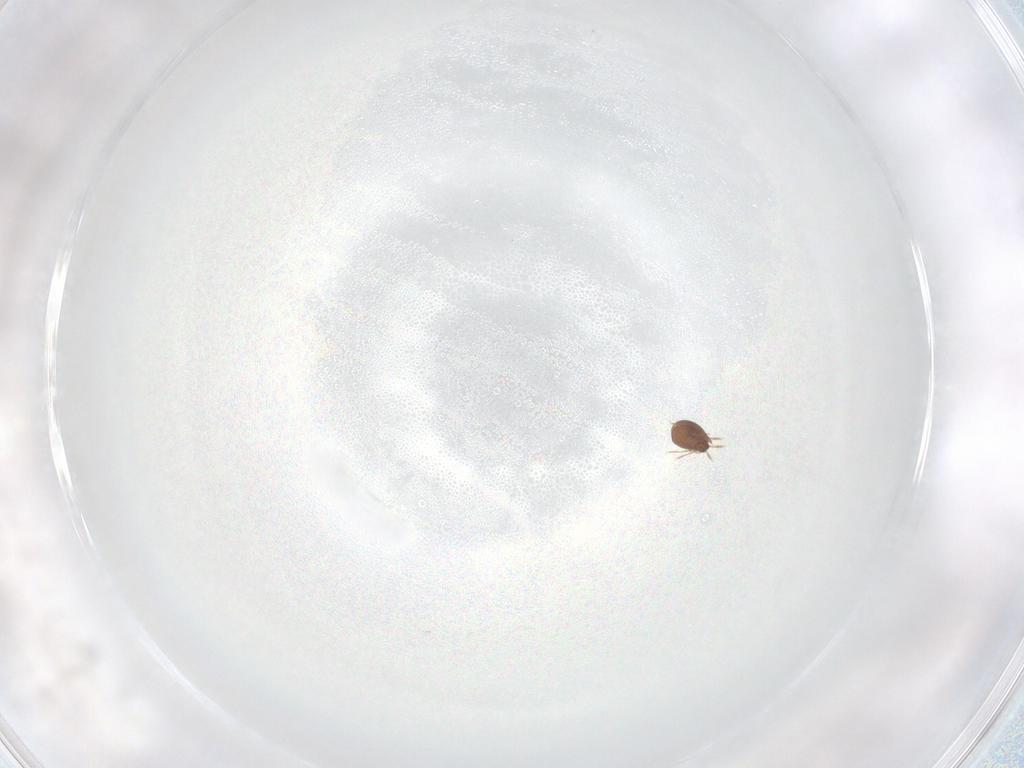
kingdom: Animalia
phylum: Arthropoda
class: Arachnida
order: Sarcoptiformes
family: Tegoribatidae
